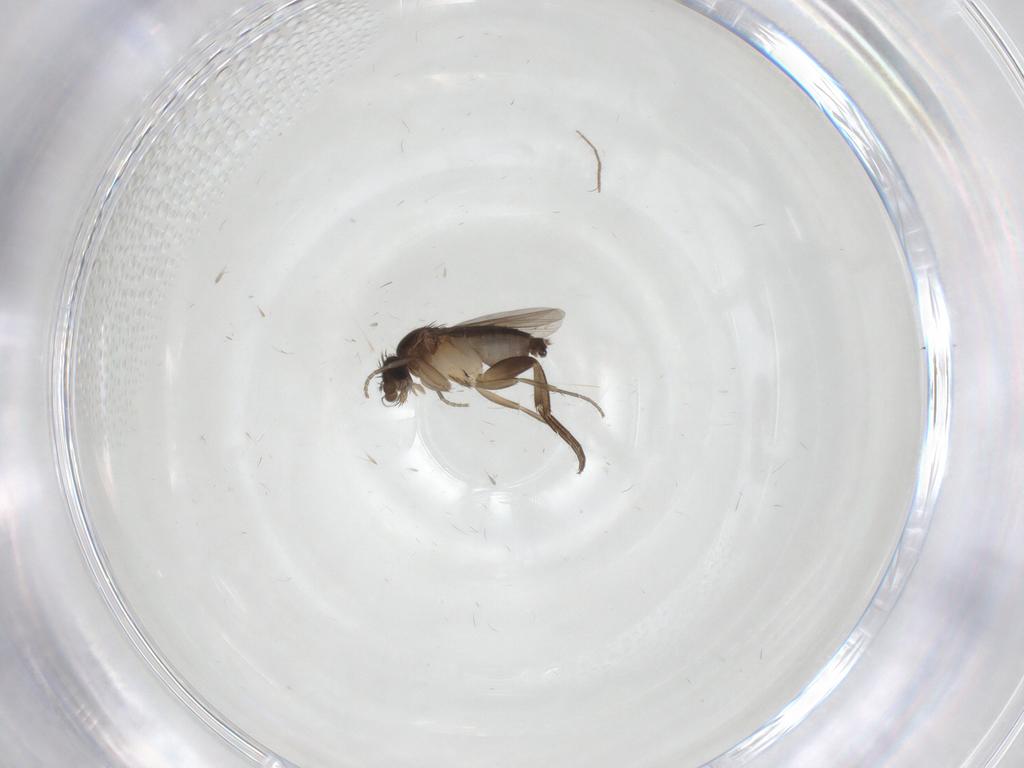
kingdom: Animalia
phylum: Arthropoda
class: Insecta
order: Diptera
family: Phoridae
